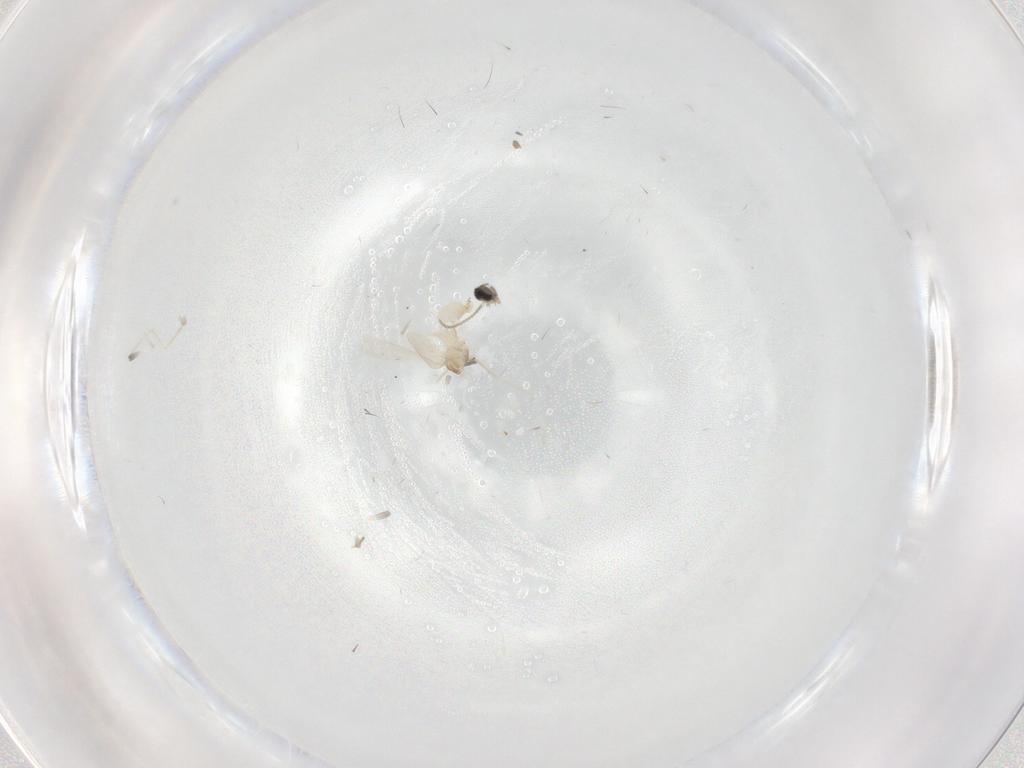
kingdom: Animalia
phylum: Arthropoda
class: Insecta
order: Diptera
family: Cecidomyiidae
